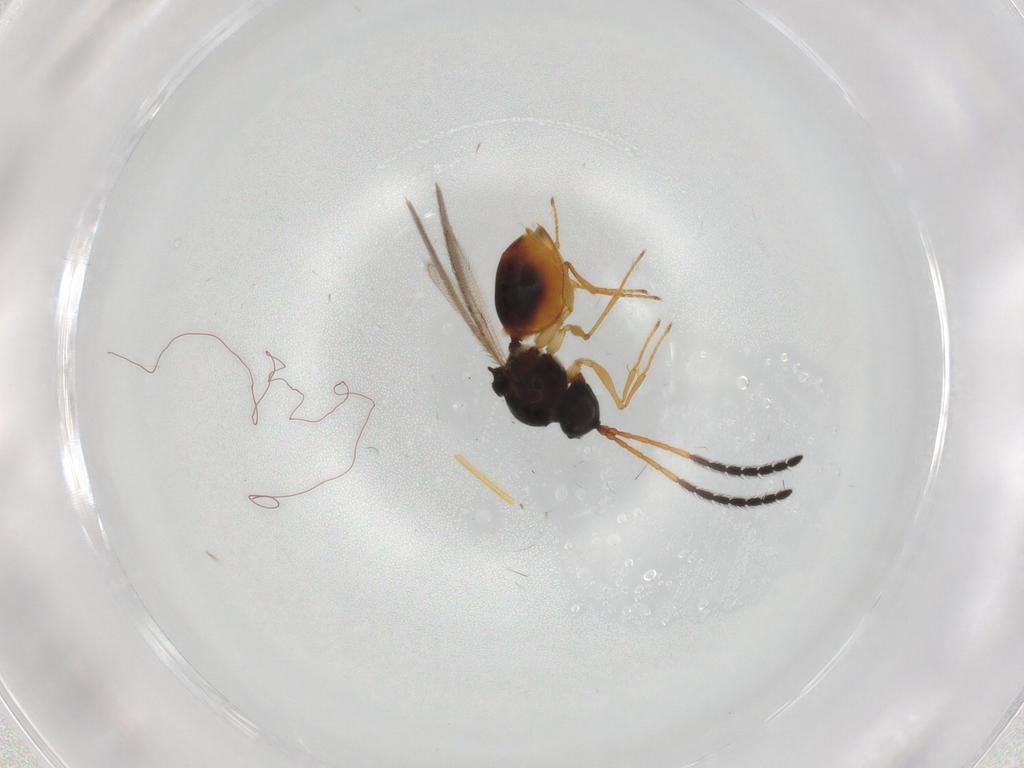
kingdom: Animalia
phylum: Arthropoda
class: Insecta
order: Hymenoptera
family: Figitidae
